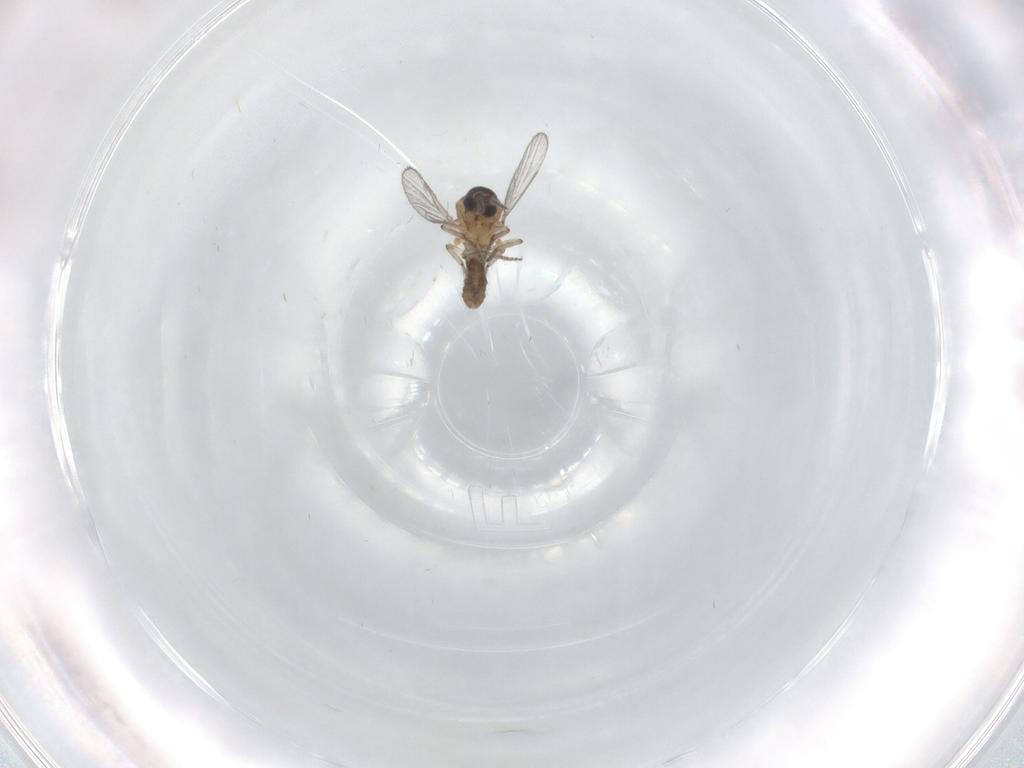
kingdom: Animalia
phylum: Arthropoda
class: Insecta
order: Diptera
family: Ceratopogonidae
